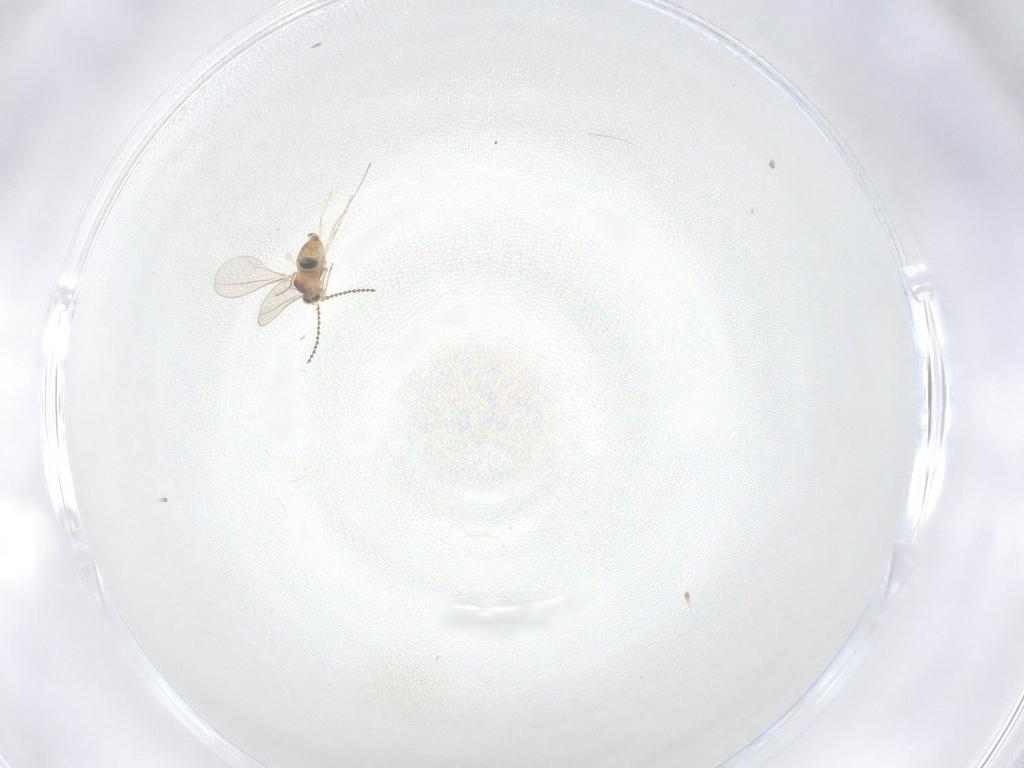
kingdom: Animalia
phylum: Arthropoda
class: Insecta
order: Diptera
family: Cecidomyiidae
